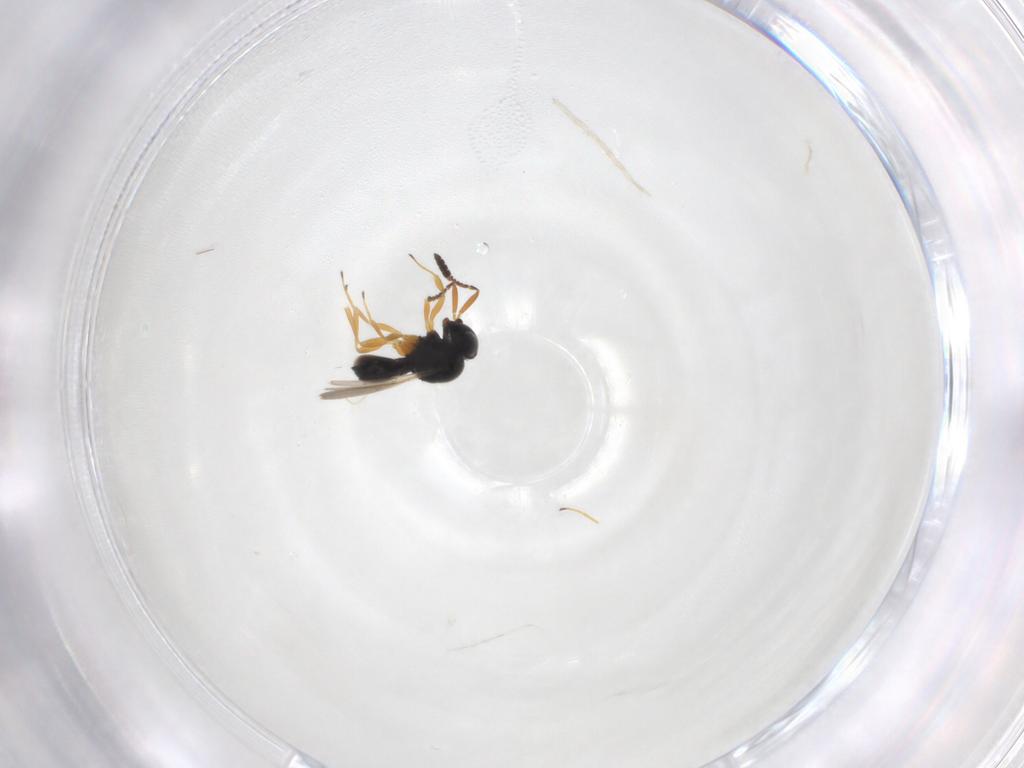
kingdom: Animalia
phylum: Arthropoda
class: Insecta
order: Hymenoptera
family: Scelionidae
